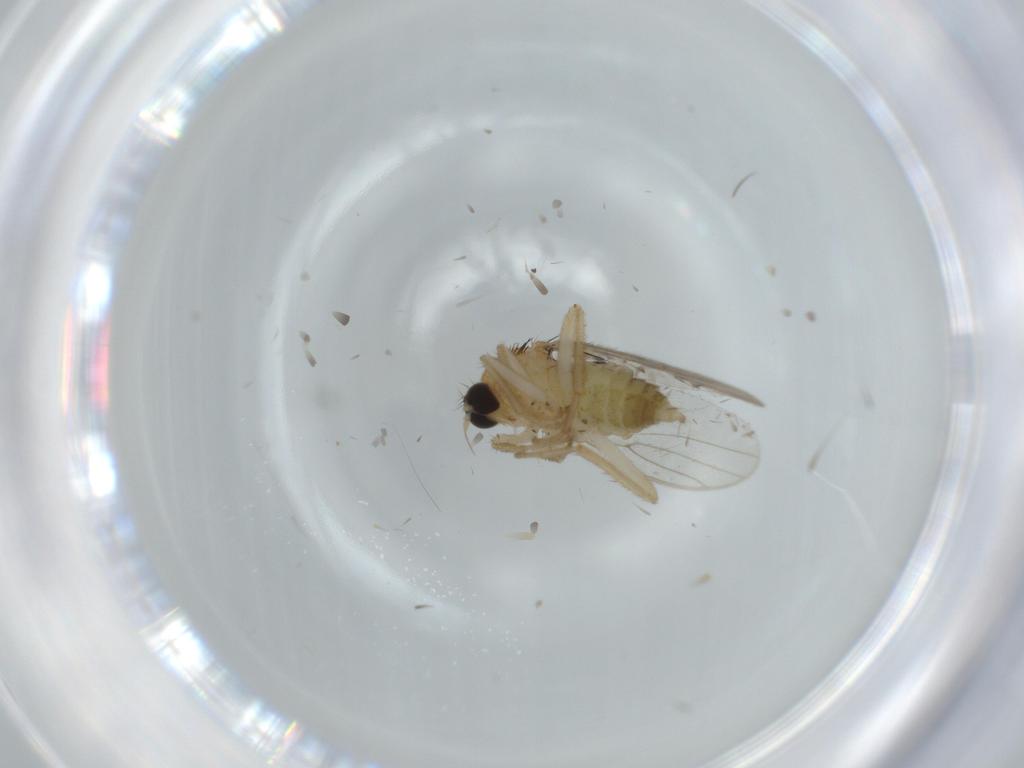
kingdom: Animalia
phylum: Arthropoda
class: Insecta
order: Diptera
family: Hybotidae
